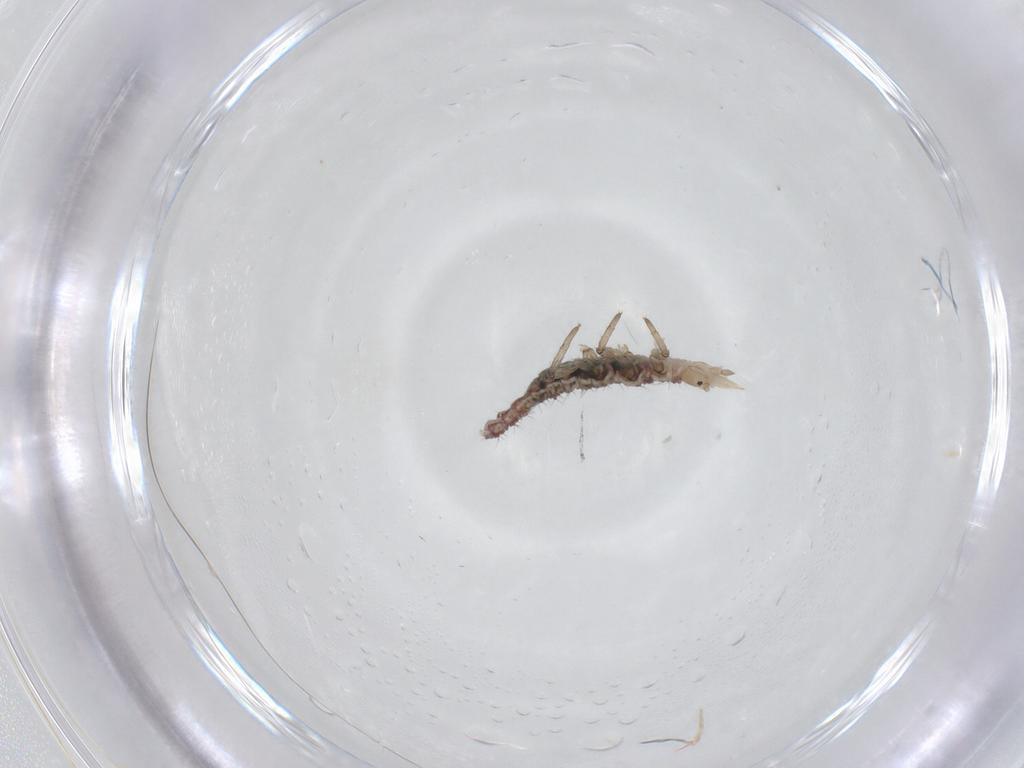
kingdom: Animalia
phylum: Arthropoda
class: Insecta
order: Neuroptera
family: Hemerobiidae
